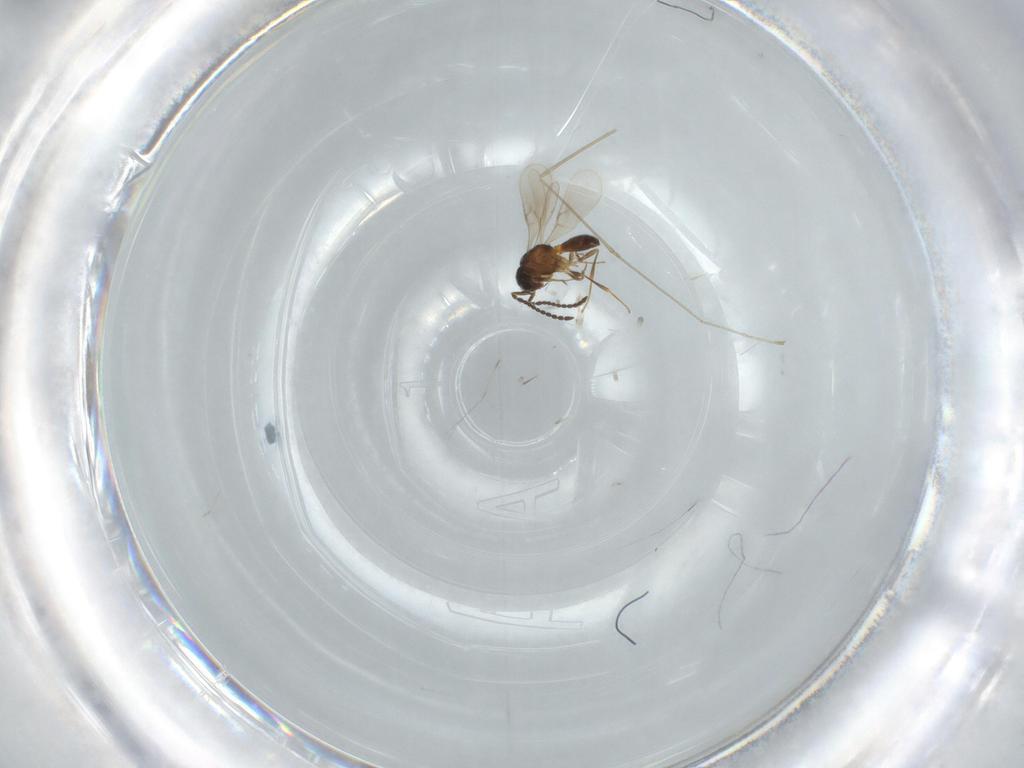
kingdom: Animalia
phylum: Arthropoda
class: Insecta
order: Hymenoptera
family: Scelionidae
